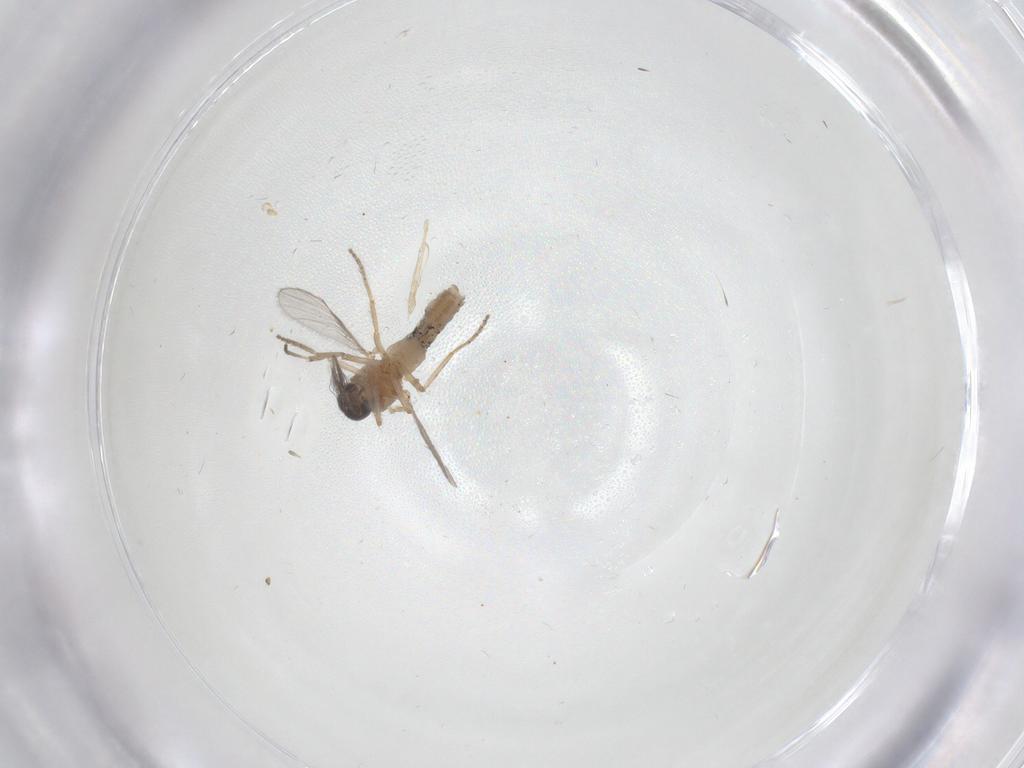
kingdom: Animalia
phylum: Arthropoda
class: Insecta
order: Diptera
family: Ceratopogonidae
